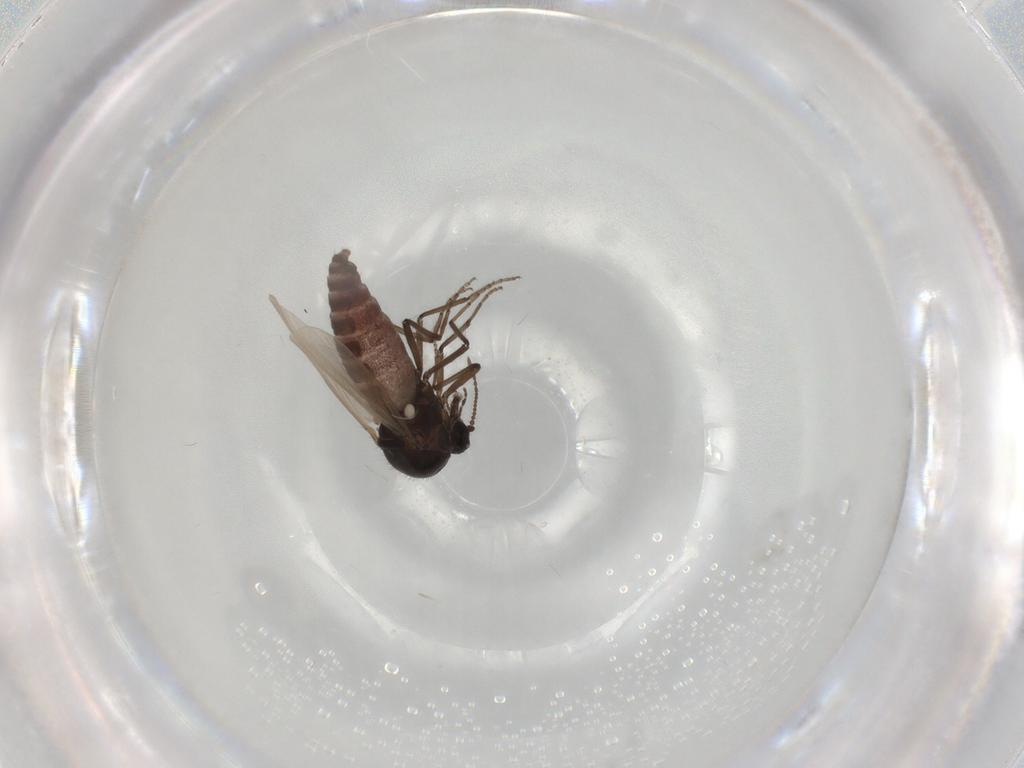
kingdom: Animalia
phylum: Arthropoda
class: Insecta
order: Diptera
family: Ceratopogonidae
